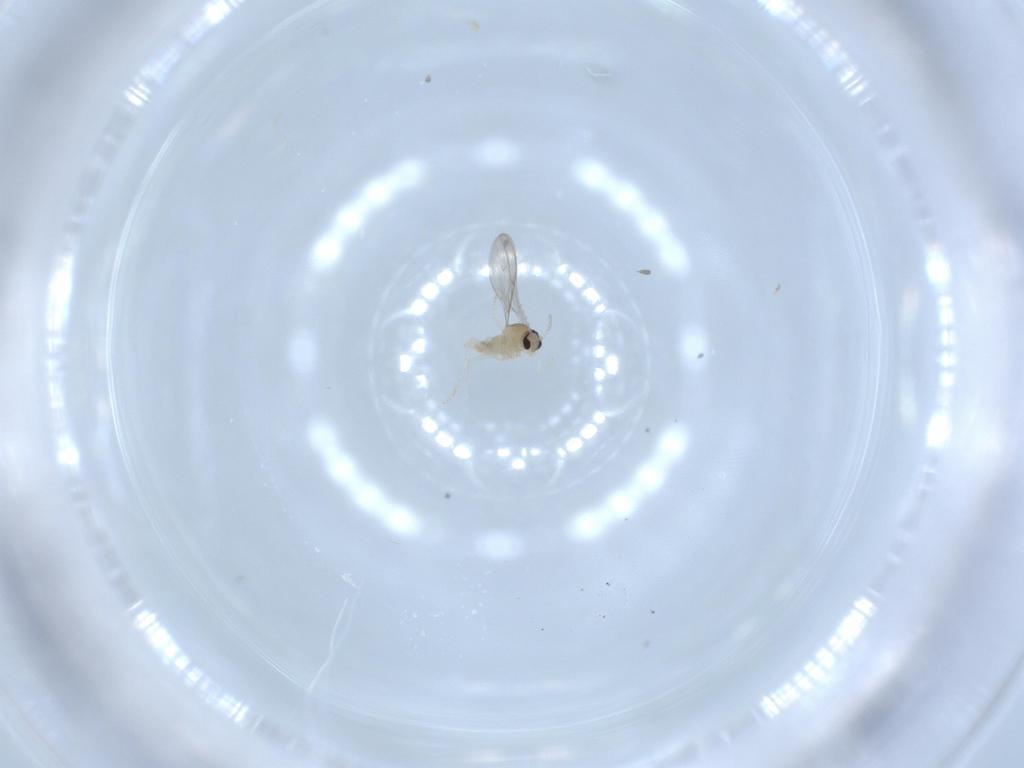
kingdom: Animalia
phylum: Arthropoda
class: Insecta
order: Diptera
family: Cecidomyiidae
